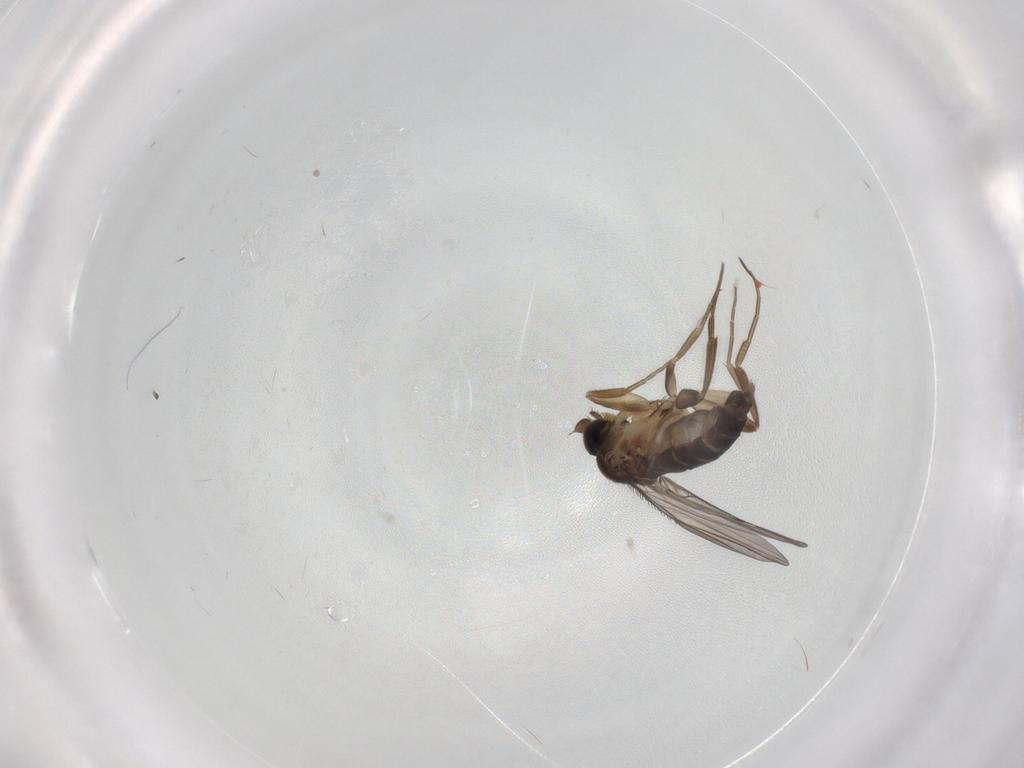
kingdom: Animalia
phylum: Arthropoda
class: Insecta
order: Diptera
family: Phoridae
